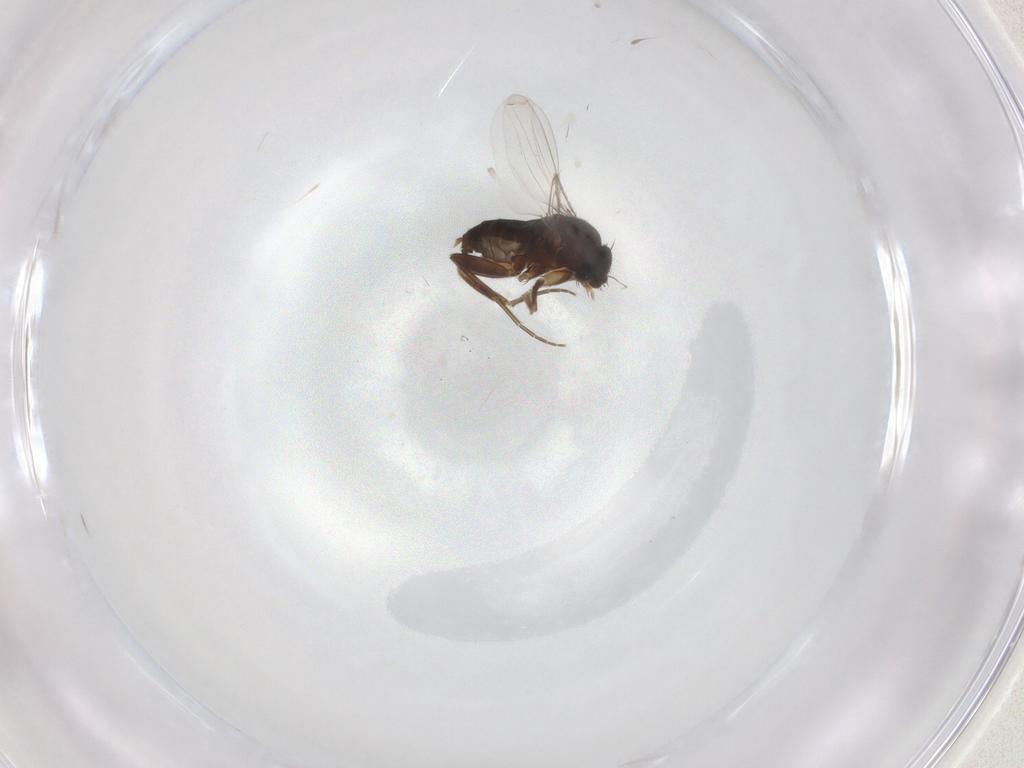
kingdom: Animalia
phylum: Arthropoda
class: Insecta
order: Diptera
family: Phoridae
